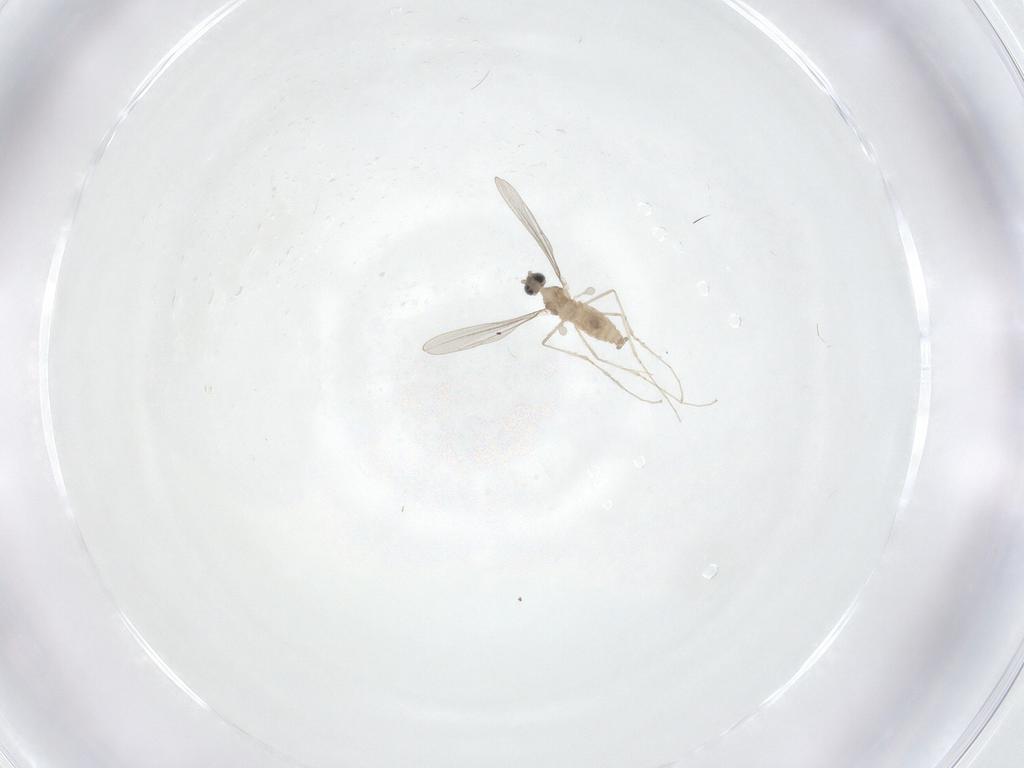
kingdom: Animalia
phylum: Arthropoda
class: Insecta
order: Diptera
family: Cecidomyiidae
